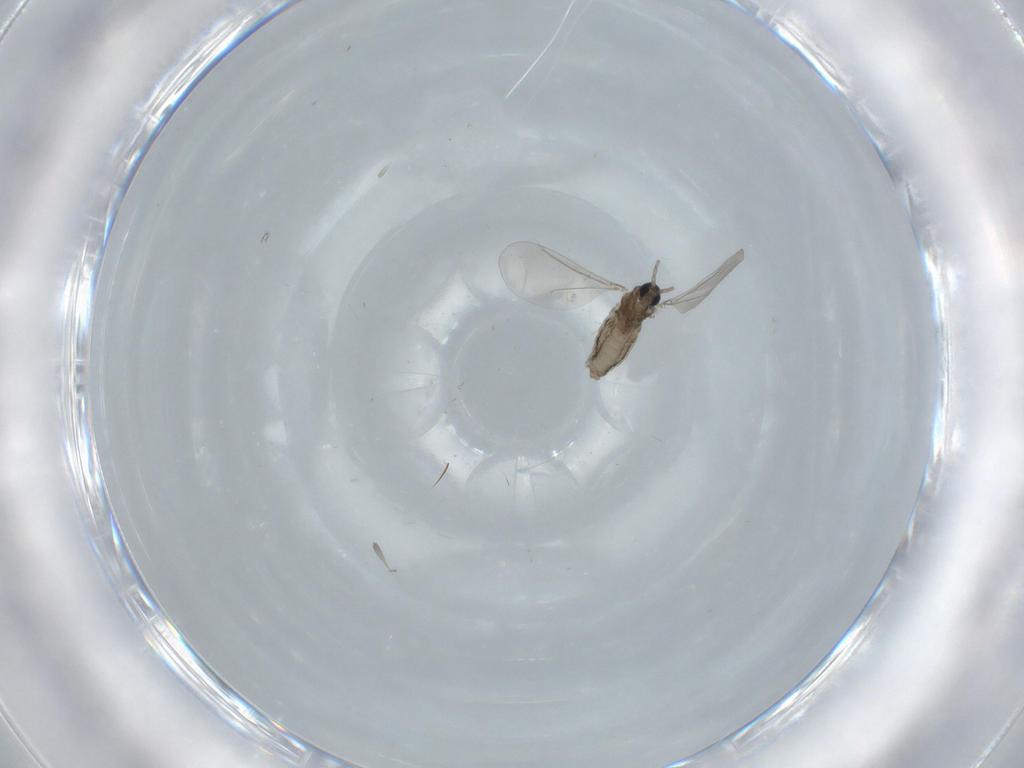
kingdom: Animalia
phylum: Arthropoda
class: Insecta
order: Diptera
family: Cecidomyiidae
